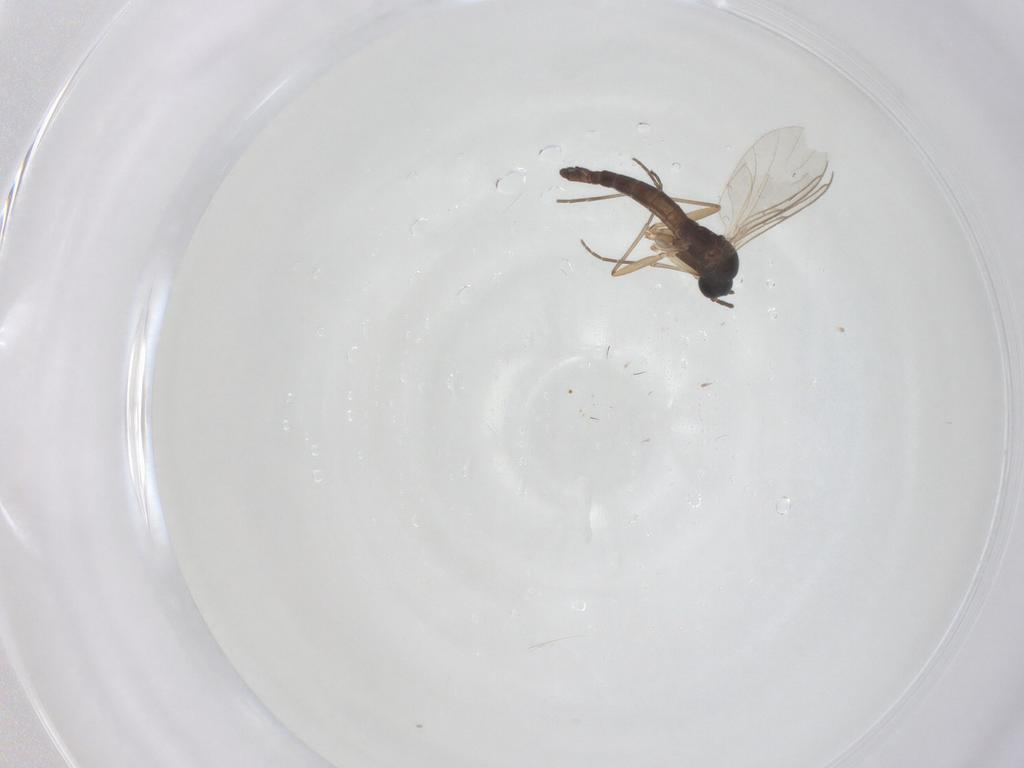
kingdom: Animalia
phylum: Arthropoda
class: Insecta
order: Diptera
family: Sciaridae
